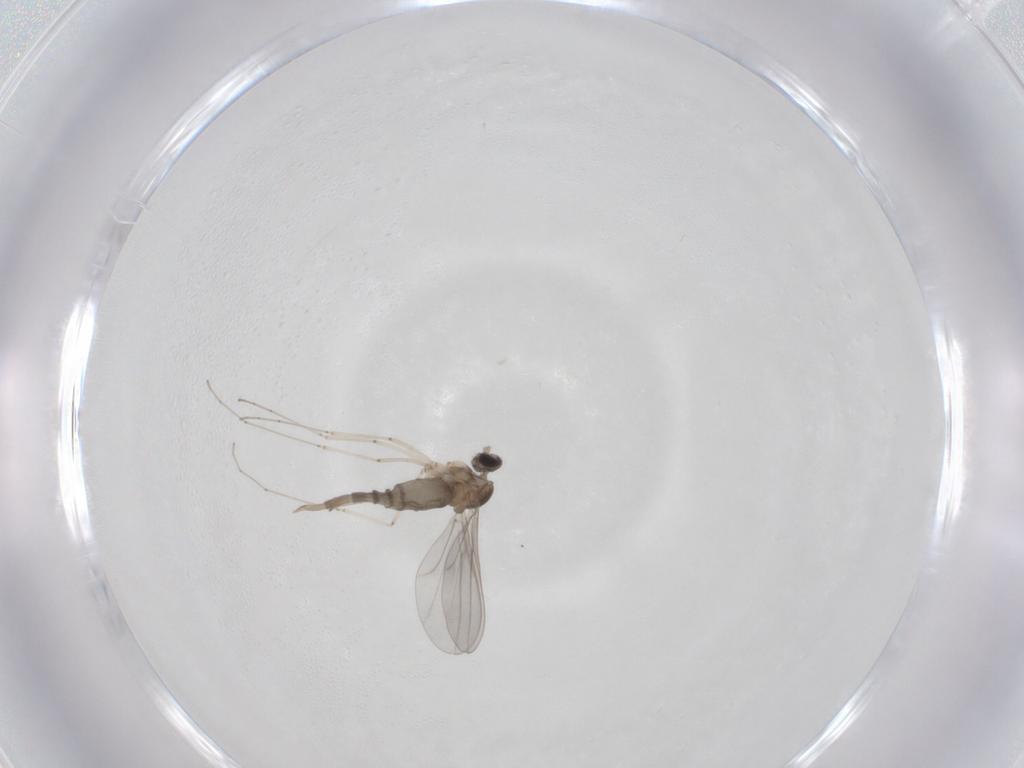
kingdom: Animalia
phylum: Arthropoda
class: Insecta
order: Diptera
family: Cecidomyiidae
